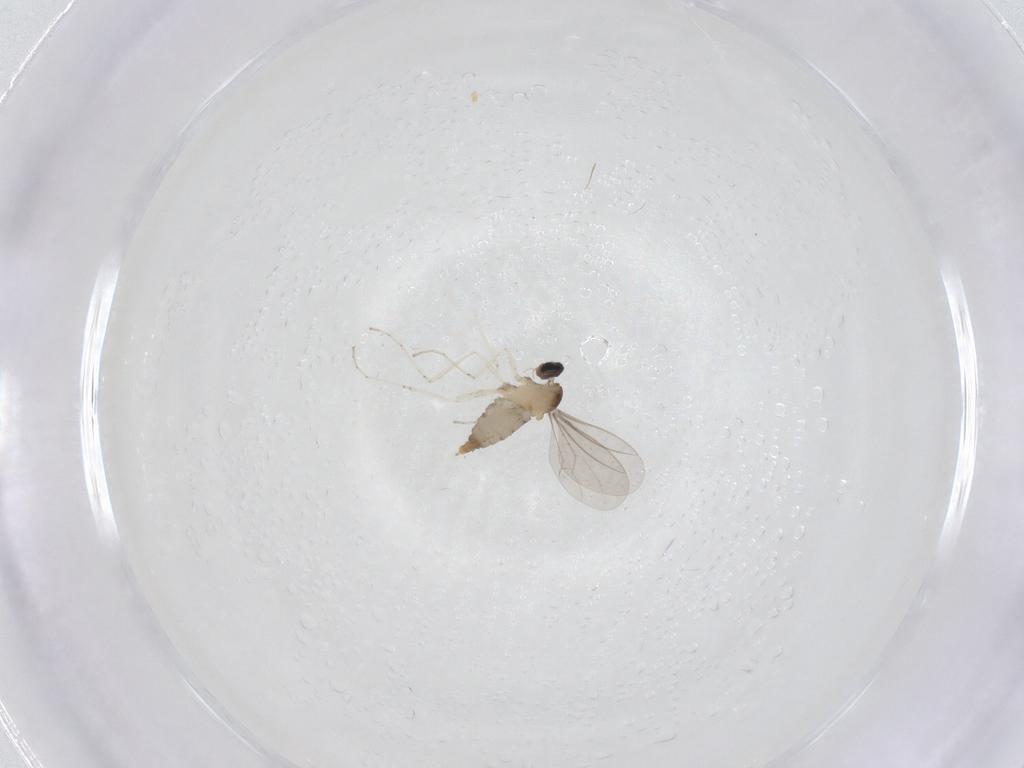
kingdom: Animalia
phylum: Arthropoda
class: Insecta
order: Diptera
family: Cecidomyiidae
